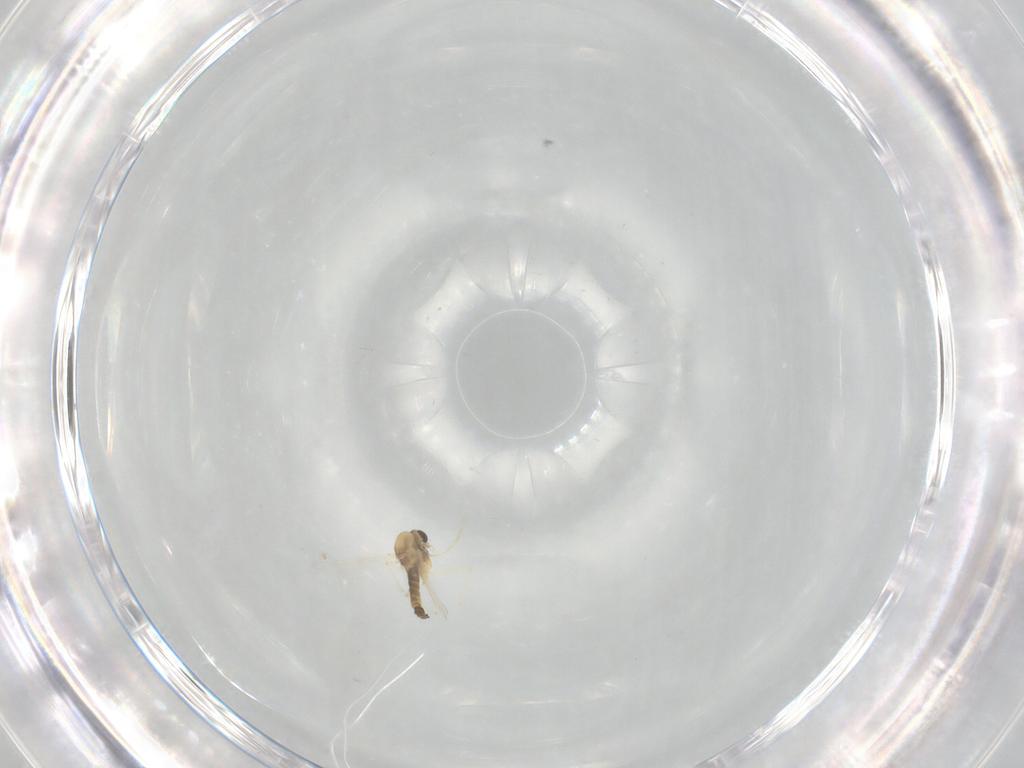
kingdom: Animalia
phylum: Arthropoda
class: Insecta
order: Diptera
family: Chironomidae
